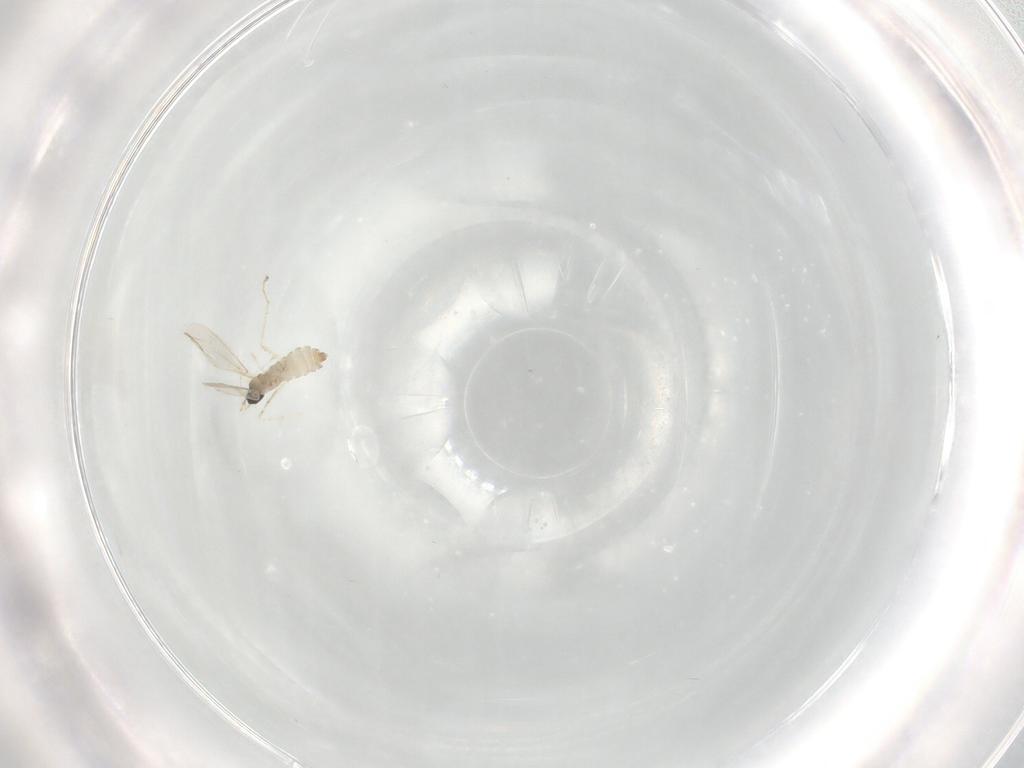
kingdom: Animalia
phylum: Arthropoda
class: Insecta
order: Diptera
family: Cecidomyiidae
